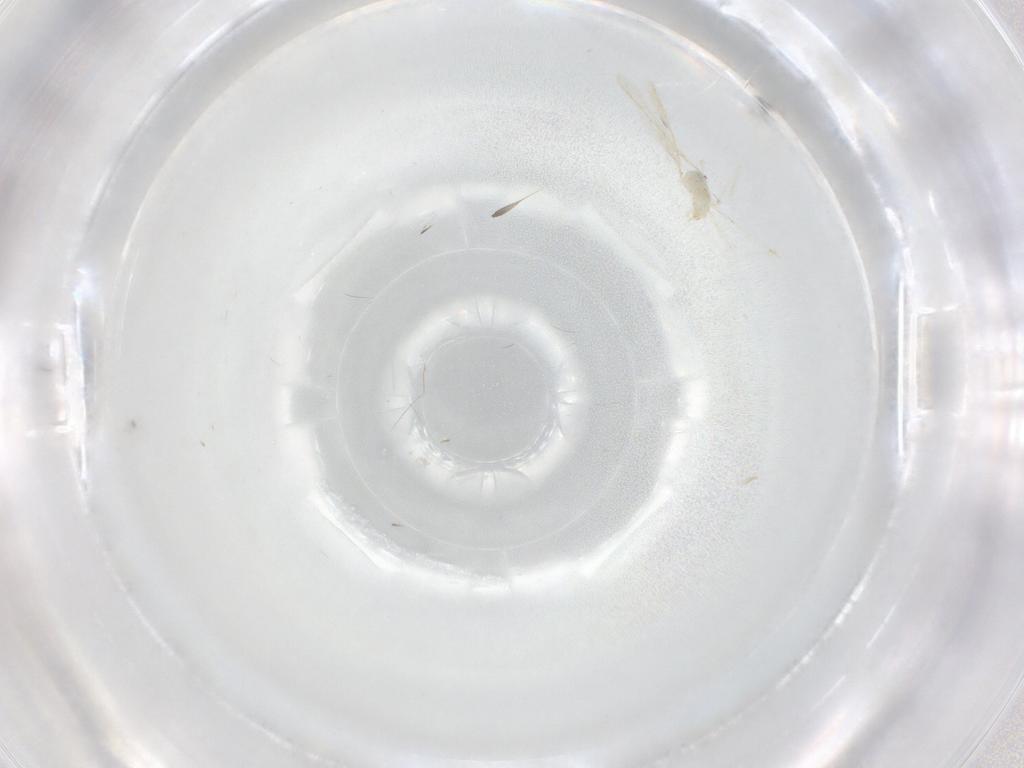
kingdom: Animalia
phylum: Arthropoda
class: Insecta
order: Diptera
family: Cecidomyiidae
